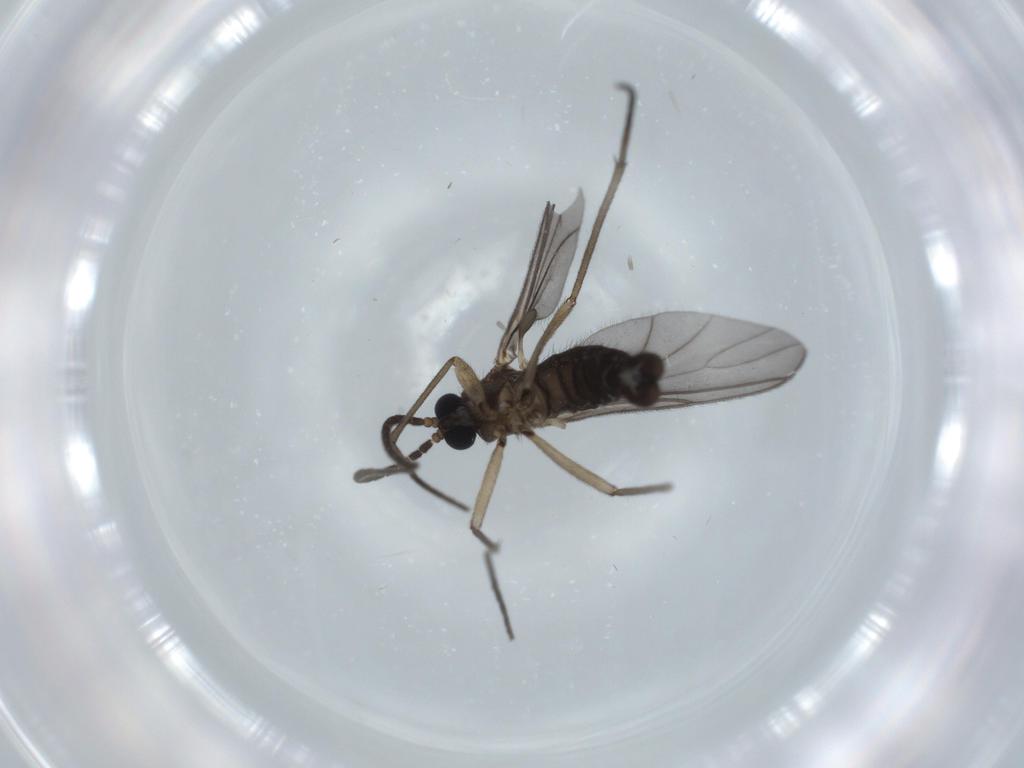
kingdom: Animalia
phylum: Arthropoda
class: Insecta
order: Diptera
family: Sciaridae
